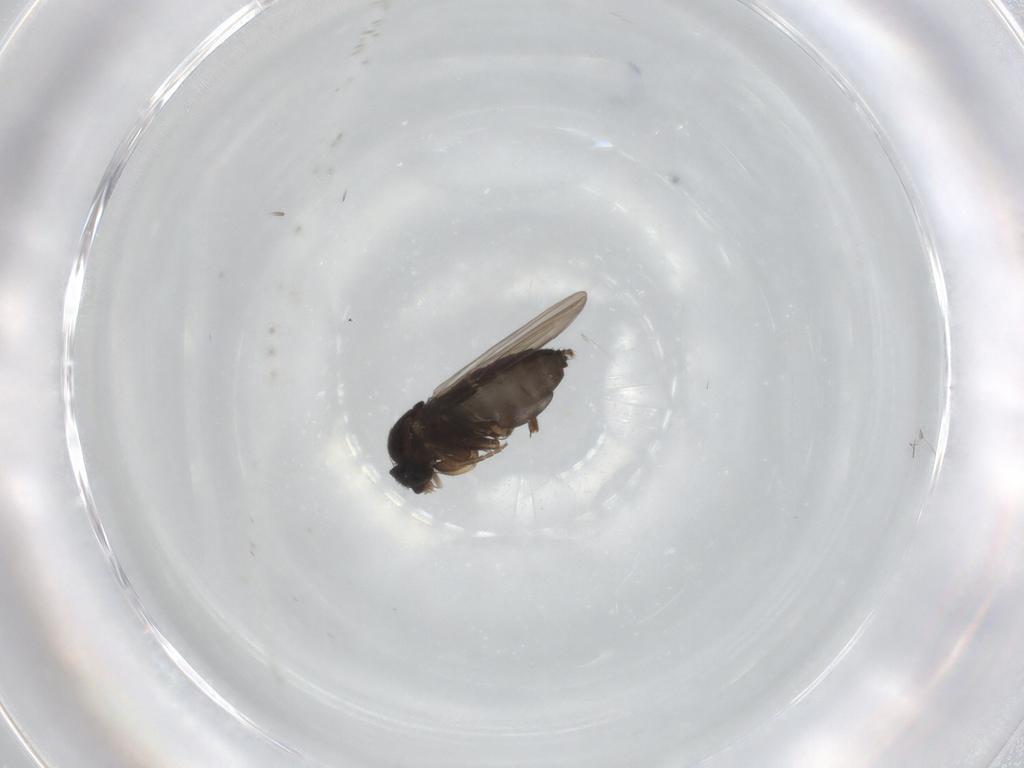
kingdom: Animalia
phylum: Arthropoda
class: Insecta
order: Diptera
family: Phoridae
